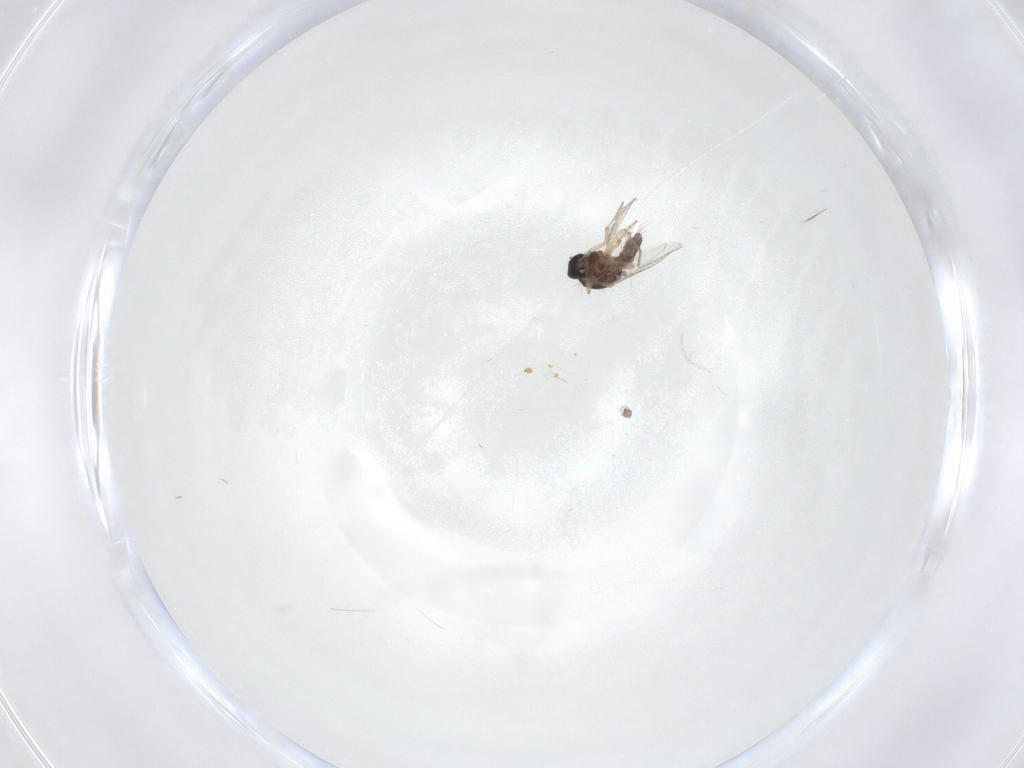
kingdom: Animalia
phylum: Arthropoda
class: Insecta
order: Diptera
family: Ceratopogonidae
